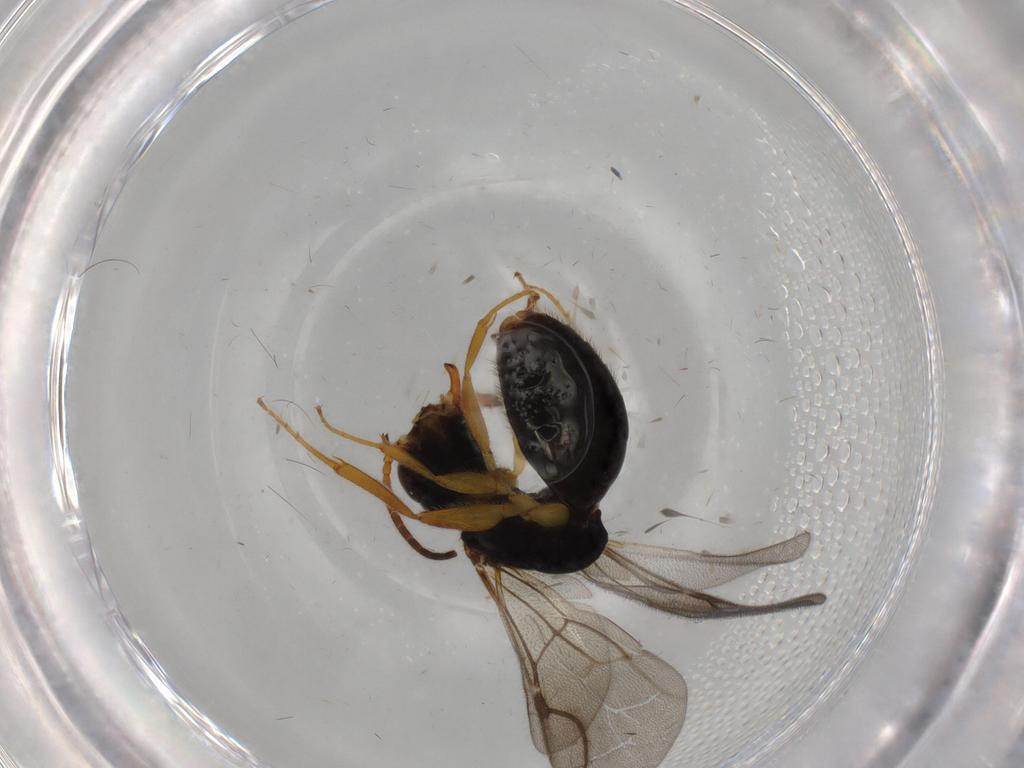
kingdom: Animalia
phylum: Arthropoda
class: Insecta
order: Hymenoptera
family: Bethylidae
